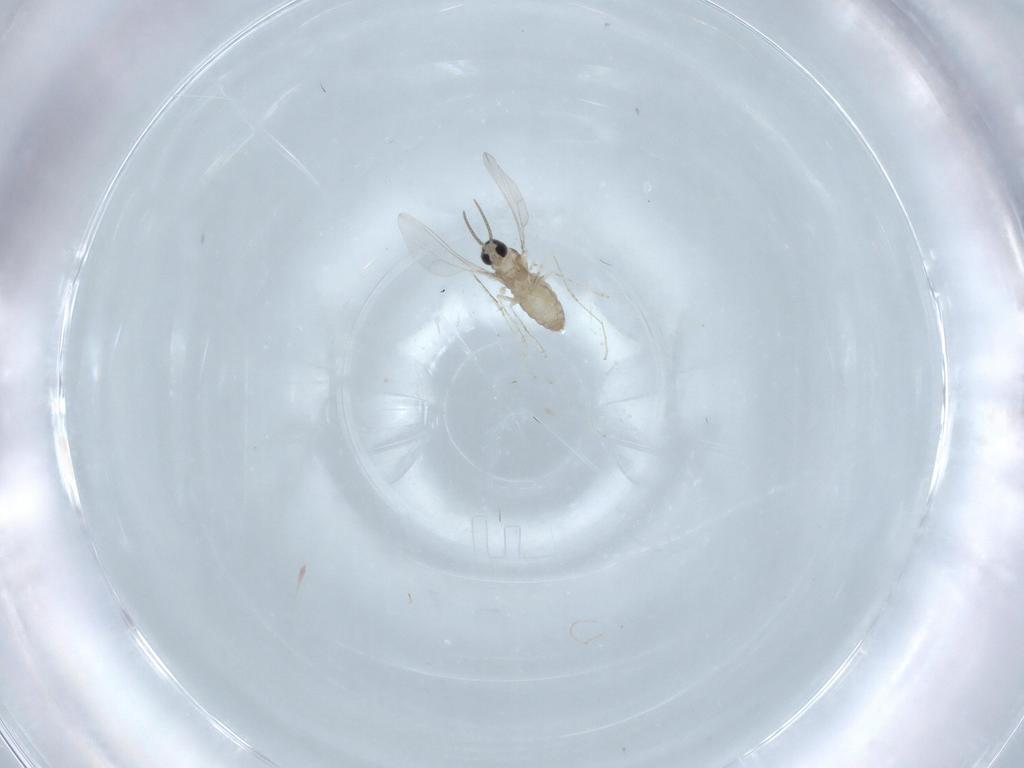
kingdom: Animalia
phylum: Arthropoda
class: Insecta
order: Diptera
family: Cecidomyiidae
